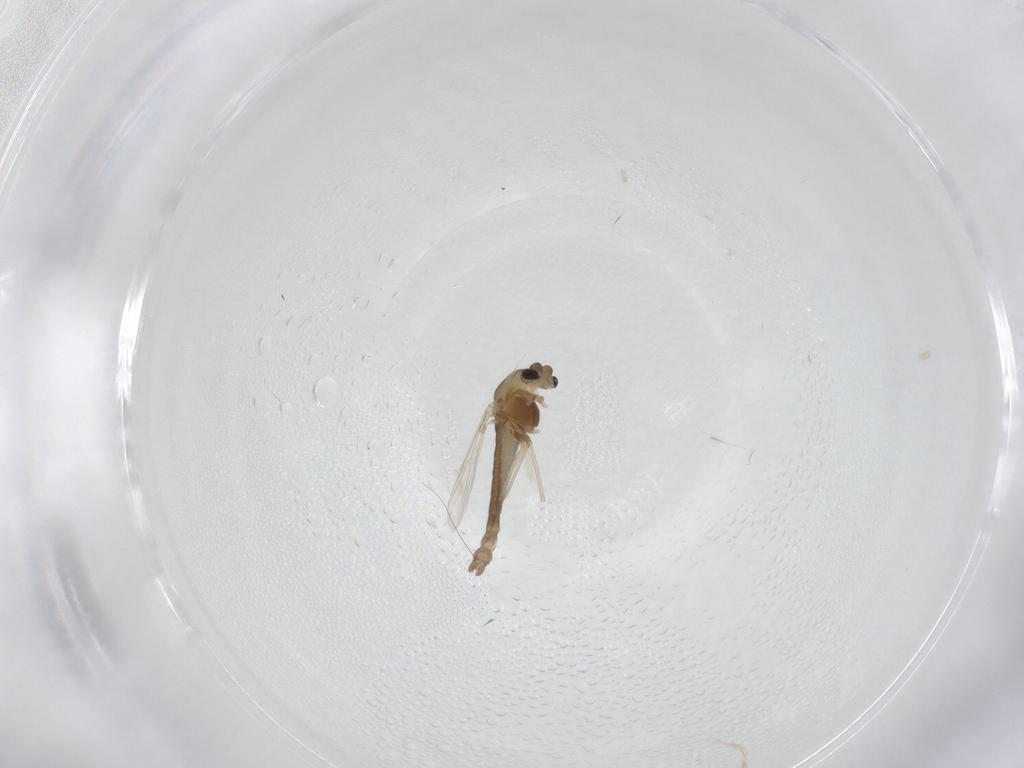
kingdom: Animalia
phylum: Arthropoda
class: Insecta
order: Diptera
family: Chironomidae
